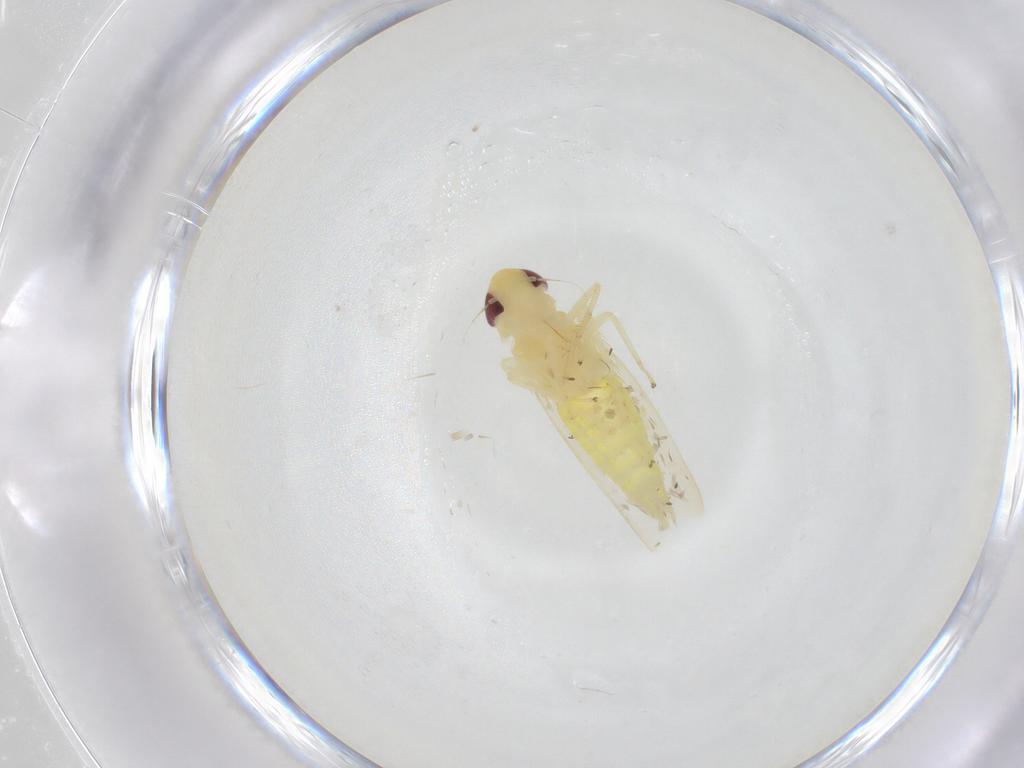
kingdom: Animalia
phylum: Arthropoda
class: Insecta
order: Hemiptera
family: Cicadellidae
